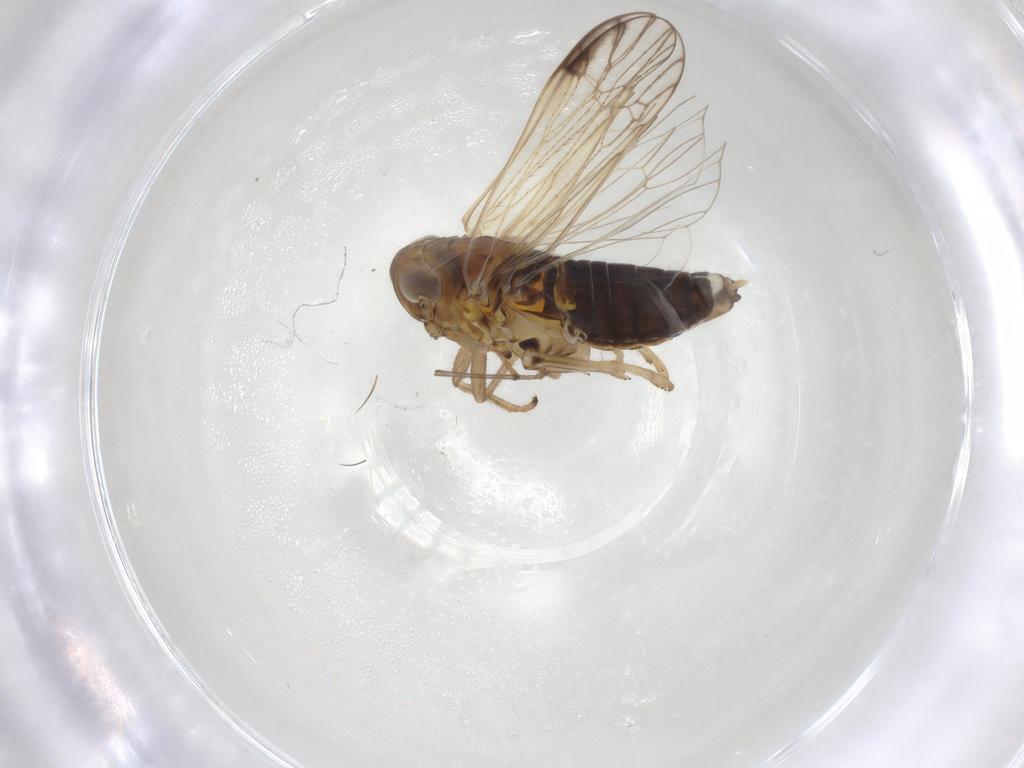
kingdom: Animalia
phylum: Arthropoda
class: Insecta
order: Hemiptera
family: Delphacidae
